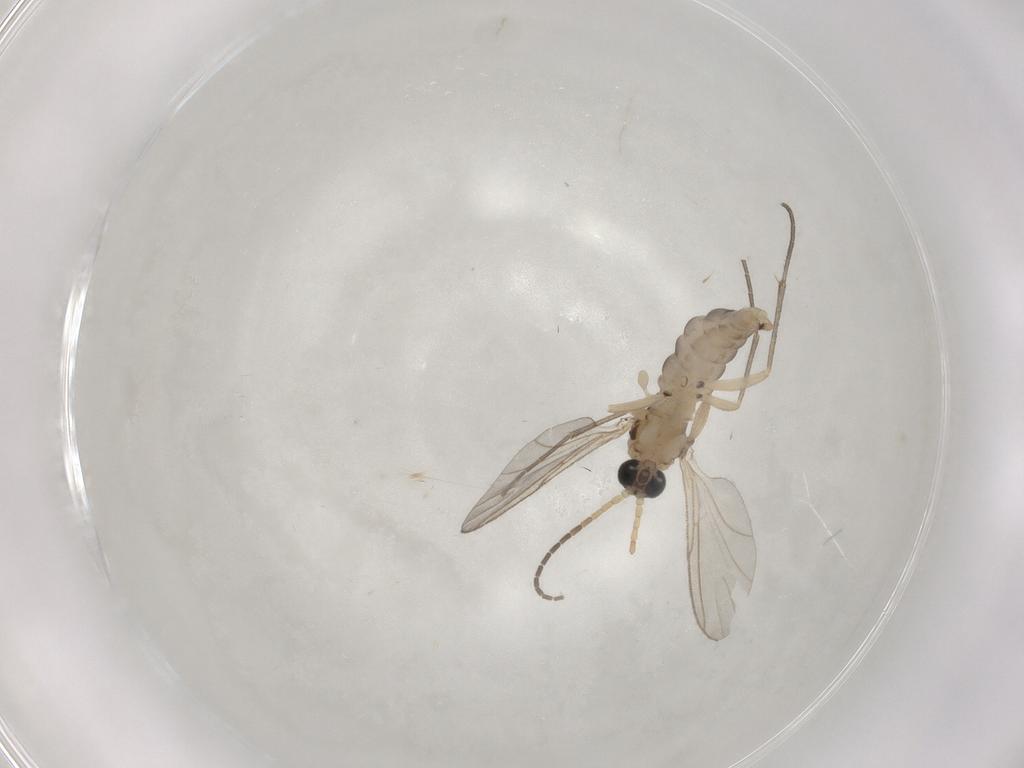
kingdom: Animalia
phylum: Arthropoda
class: Insecta
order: Diptera
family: Sciaridae
